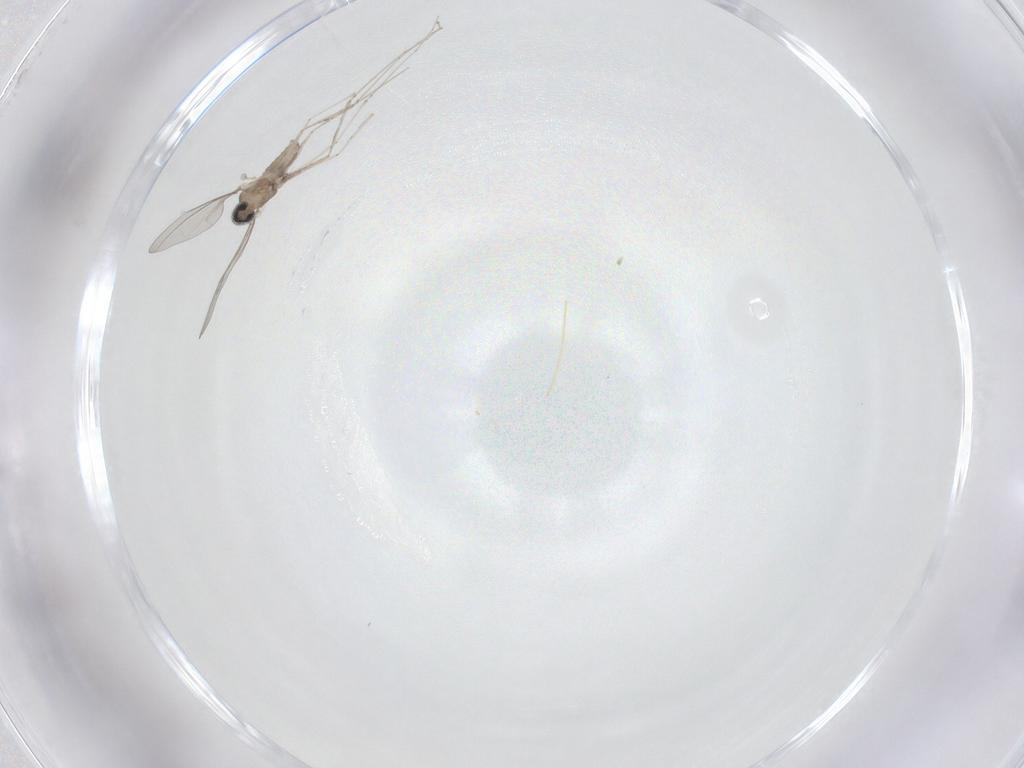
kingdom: Animalia
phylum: Arthropoda
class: Insecta
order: Diptera
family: Cecidomyiidae
